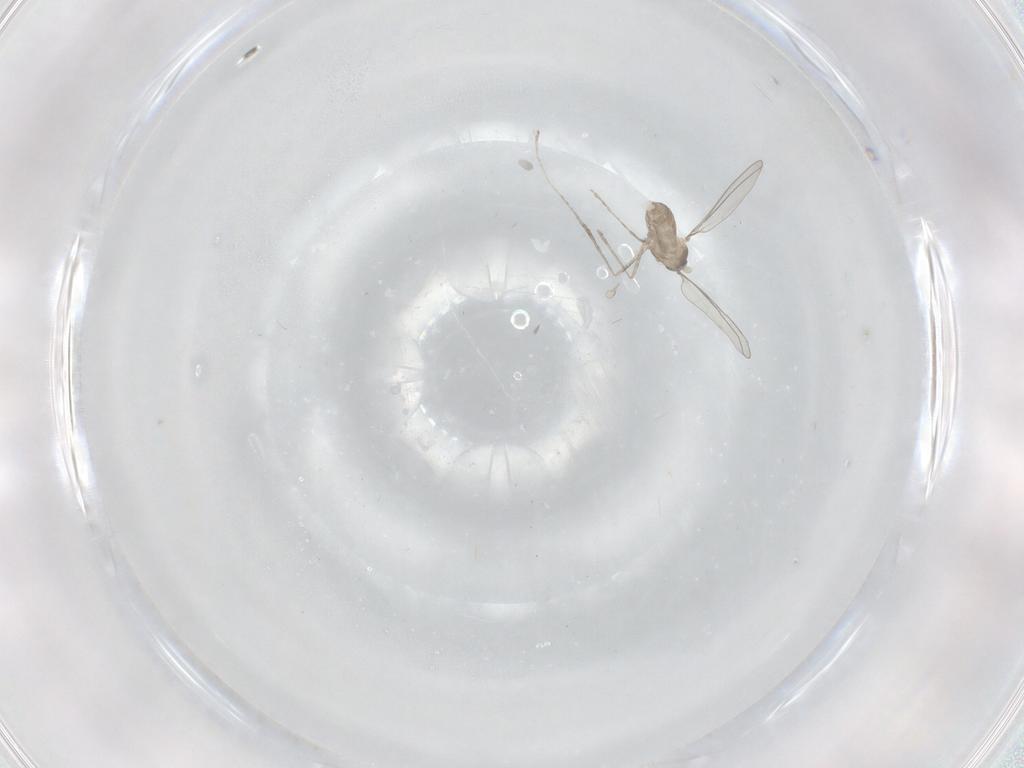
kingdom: Animalia
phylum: Arthropoda
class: Insecta
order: Diptera
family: Cecidomyiidae
